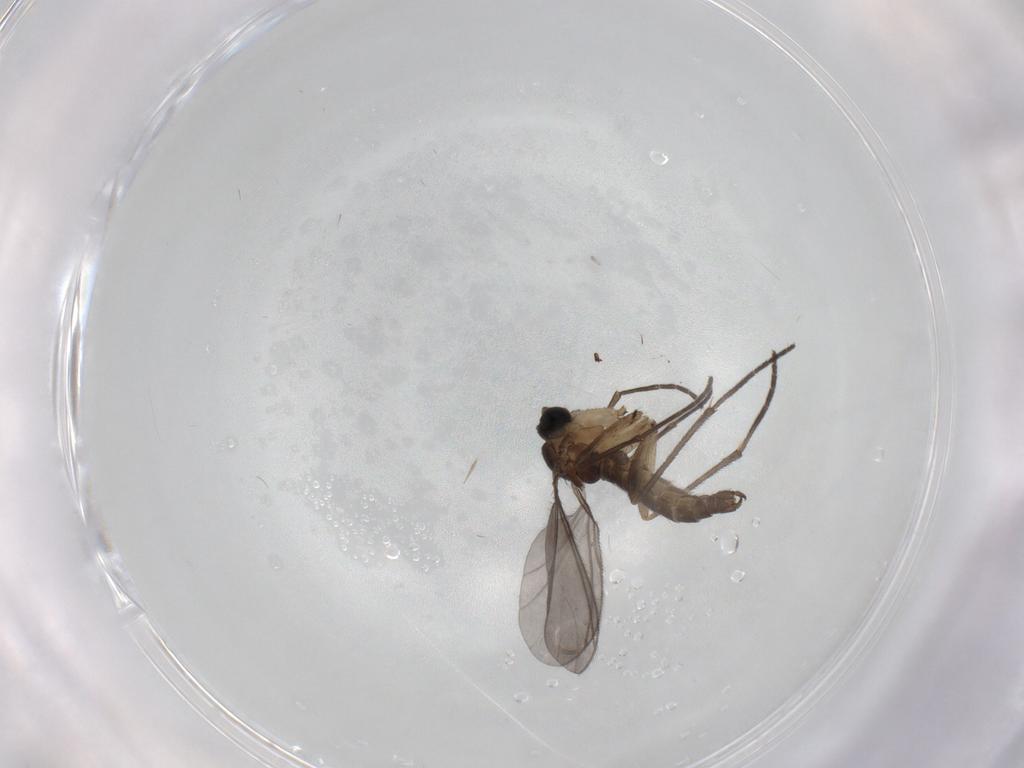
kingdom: Animalia
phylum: Arthropoda
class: Insecta
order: Diptera
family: Sciaridae
